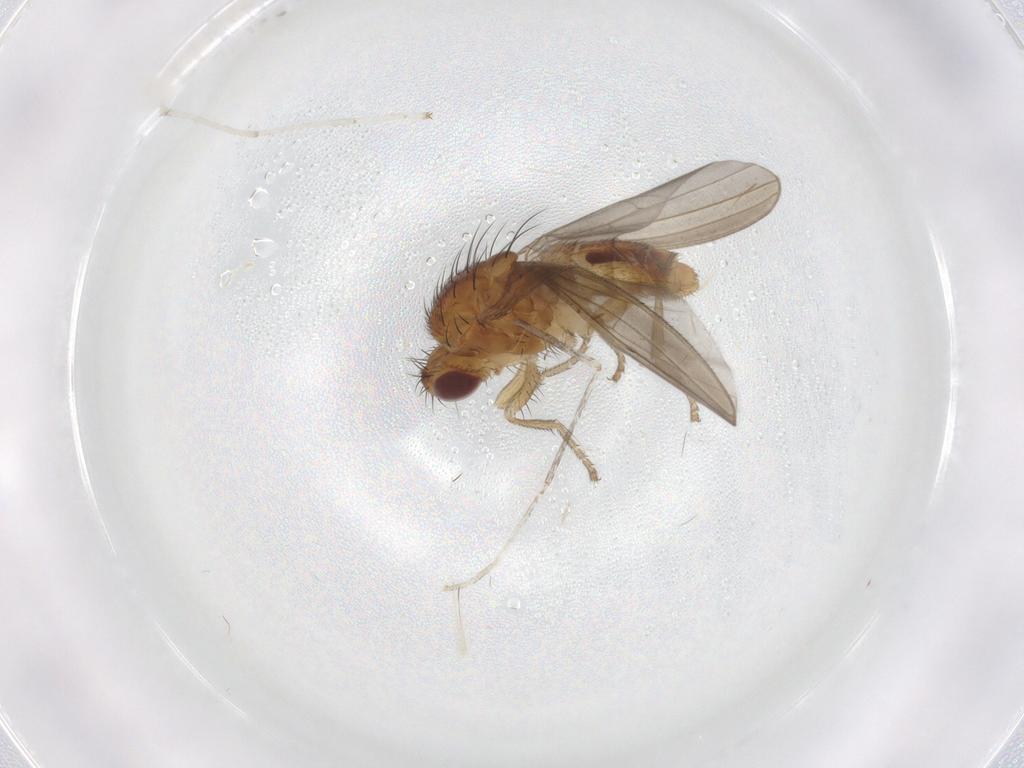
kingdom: Animalia
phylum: Arthropoda
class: Insecta
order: Diptera
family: Natalimyzidae
